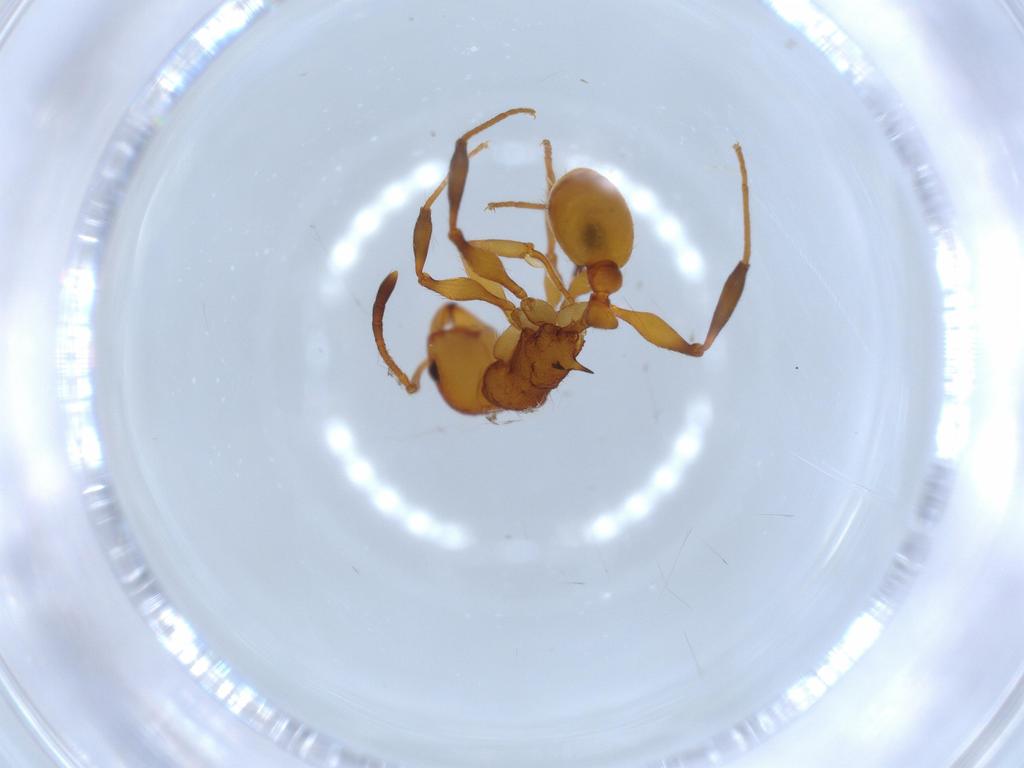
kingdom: Animalia
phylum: Arthropoda
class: Insecta
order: Hymenoptera
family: Formicidae
